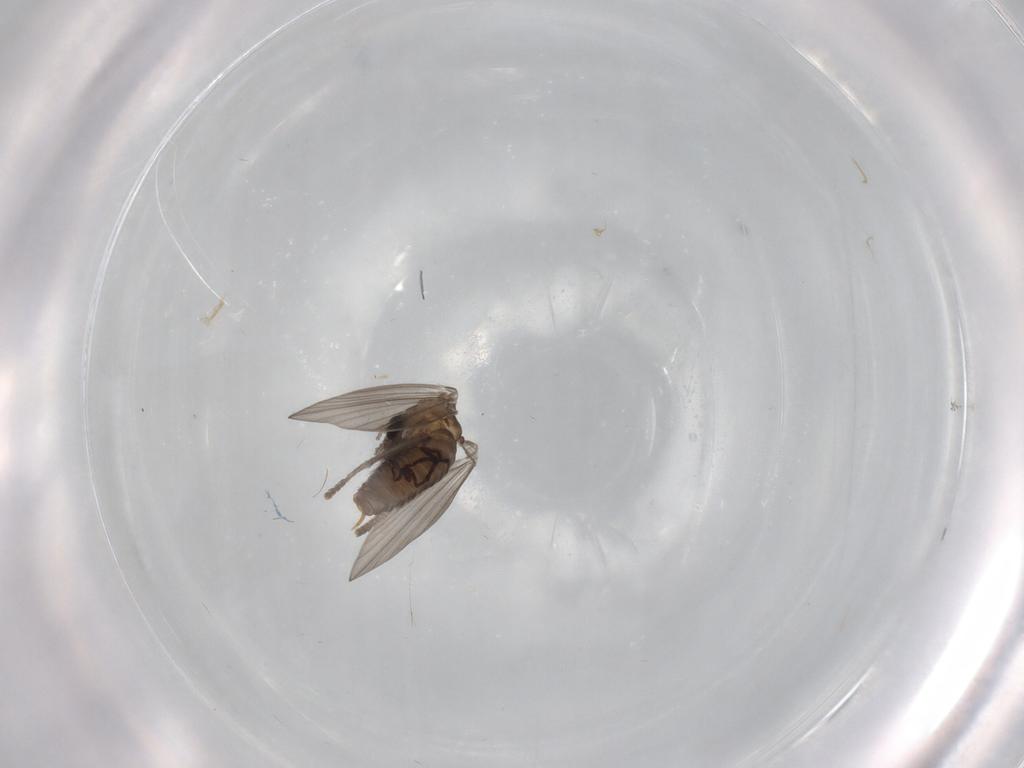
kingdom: Animalia
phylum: Arthropoda
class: Insecta
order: Diptera
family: Psychodidae
